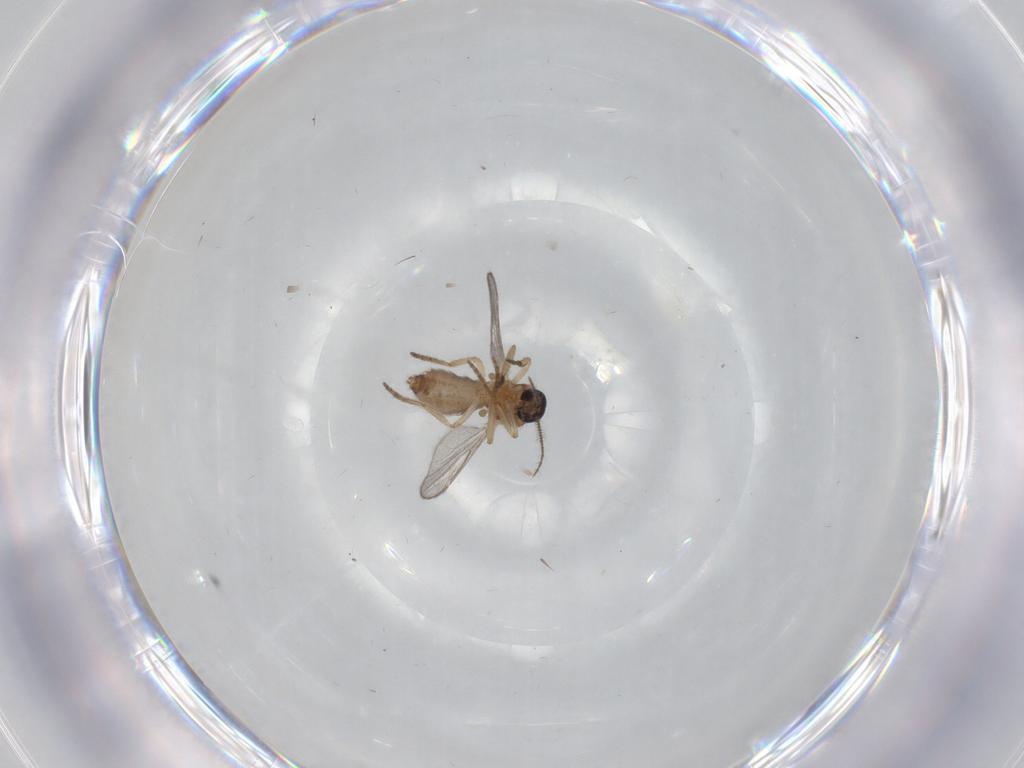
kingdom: Animalia
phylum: Arthropoda
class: Insecta
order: Diptera
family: Ceratopogonidae
